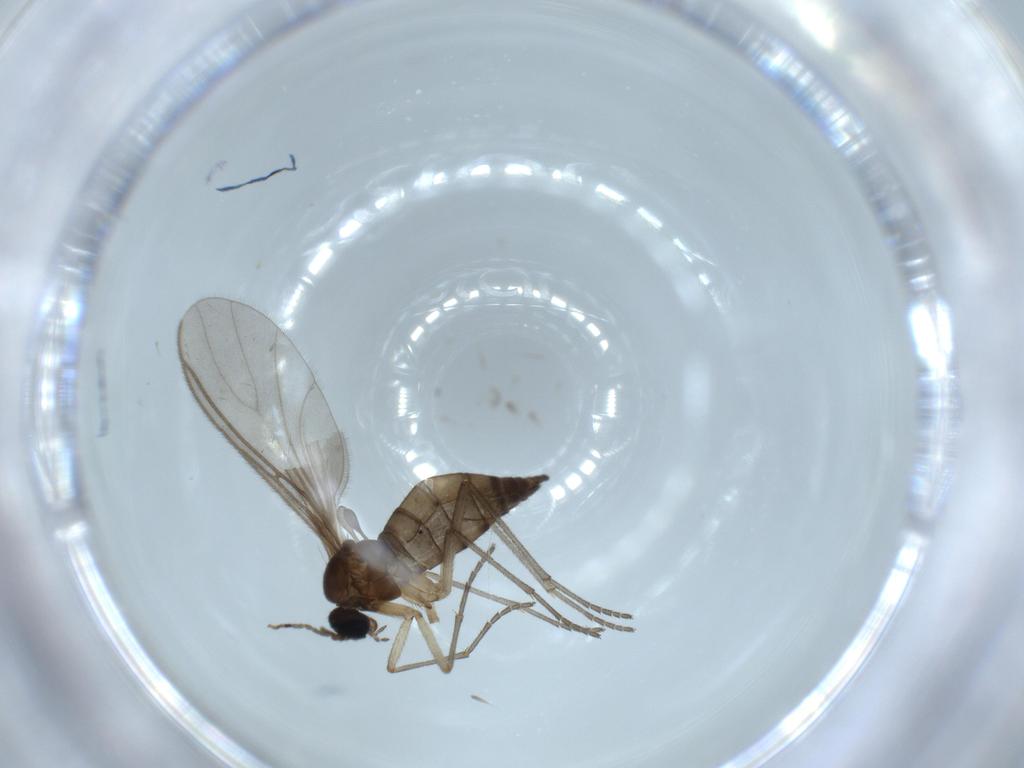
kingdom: Animalia
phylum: Arthropoda
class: Insecta
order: Diptera
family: Sciaridae
